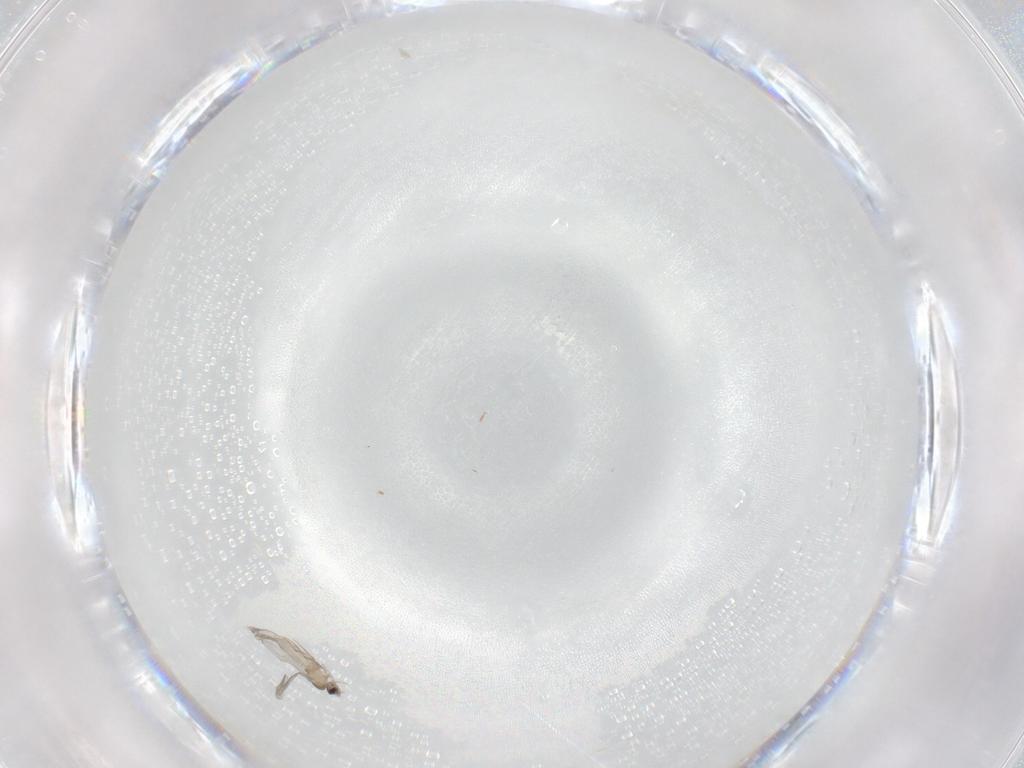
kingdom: Animalia
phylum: Arthropoda
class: Insecta
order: Diptera
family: Cecidomyiidae
